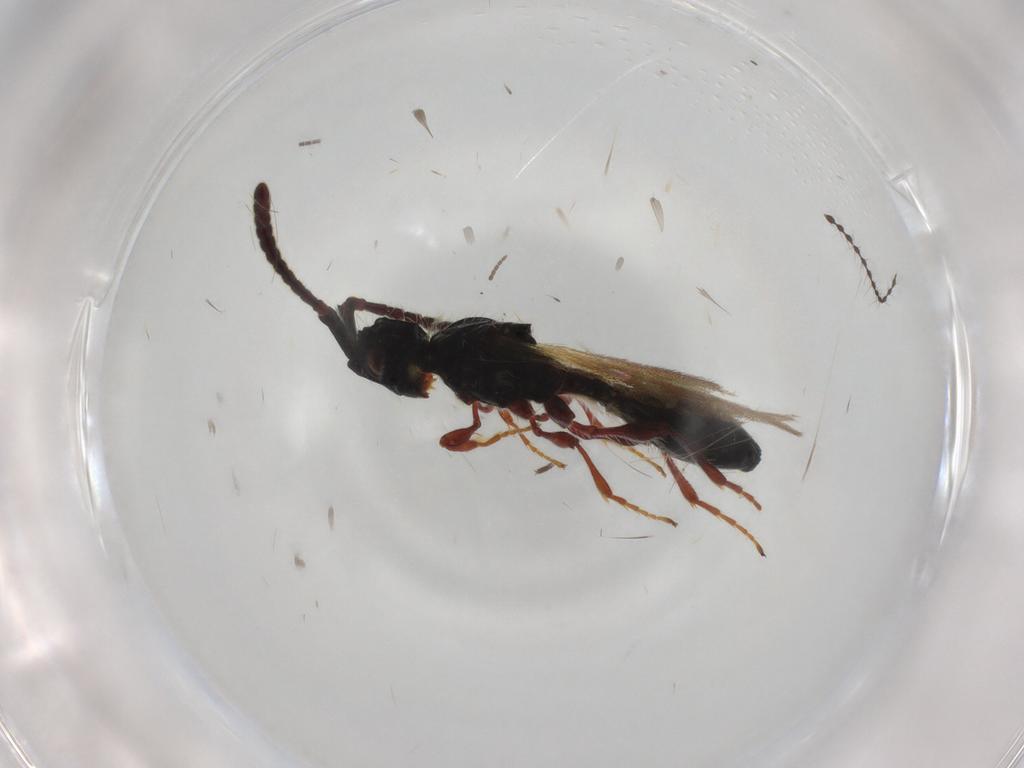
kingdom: Animalia
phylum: Arthropoda
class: Insecta
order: Hymenoptera
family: Diapriidae
